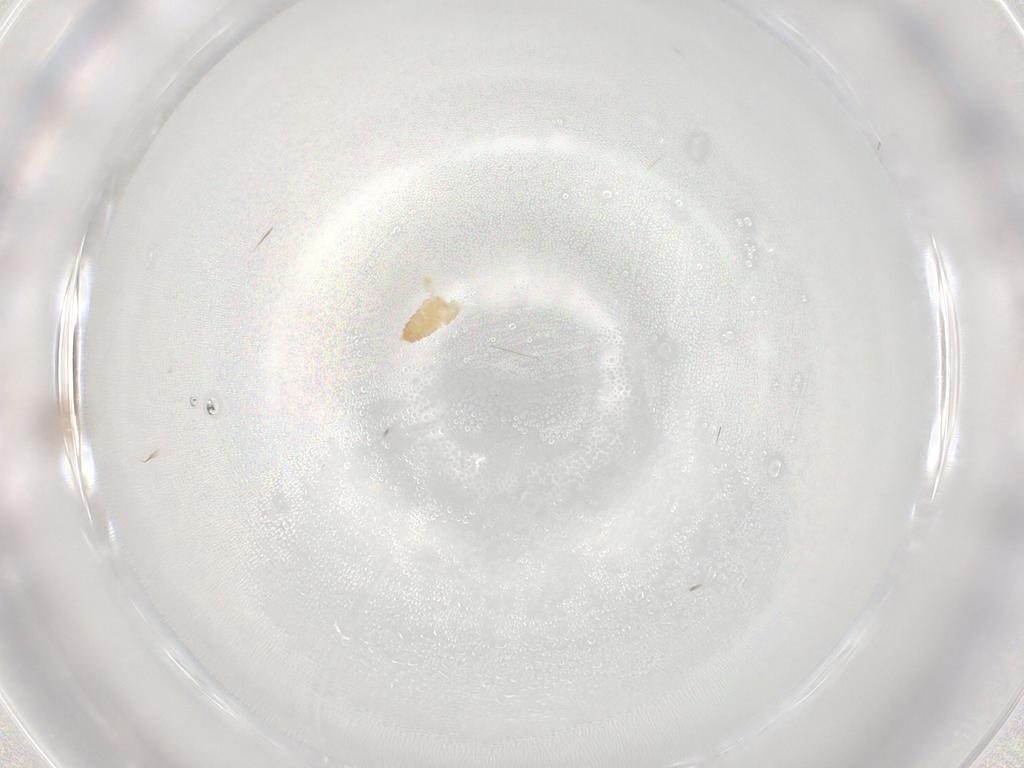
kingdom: Animalia
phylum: Arthropoda
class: Insecta
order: Diptera
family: Cecidomyiidae
